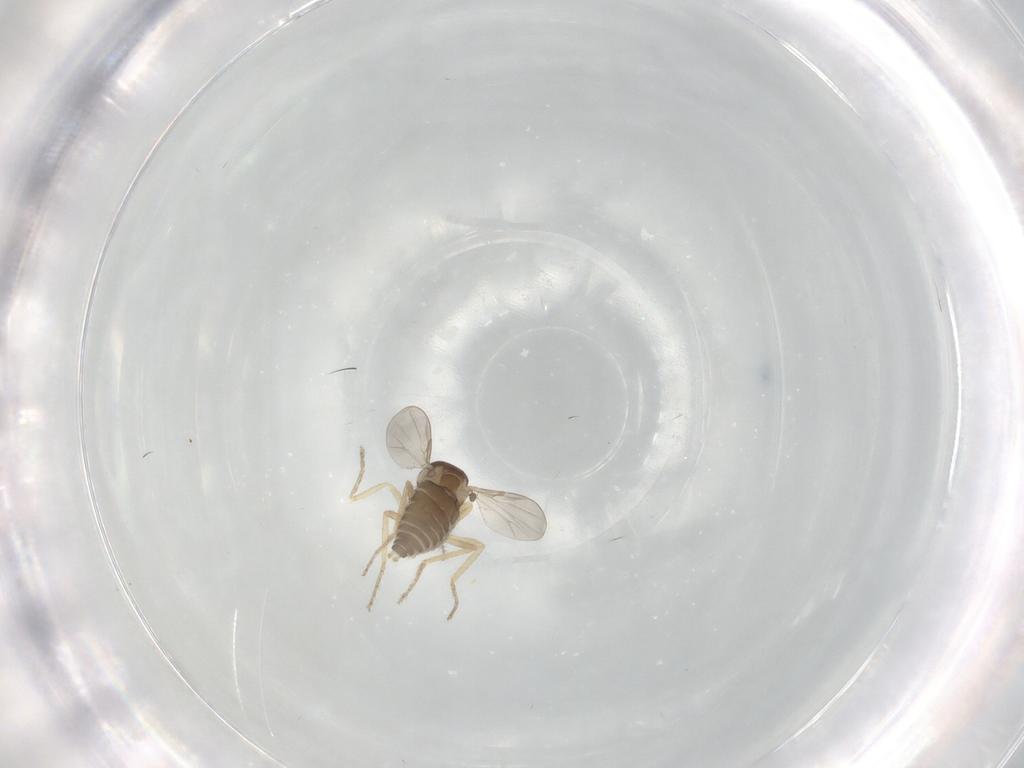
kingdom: Animalia
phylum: Arthropoda
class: Insecta
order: Diptera
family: Ceratopogonidae
